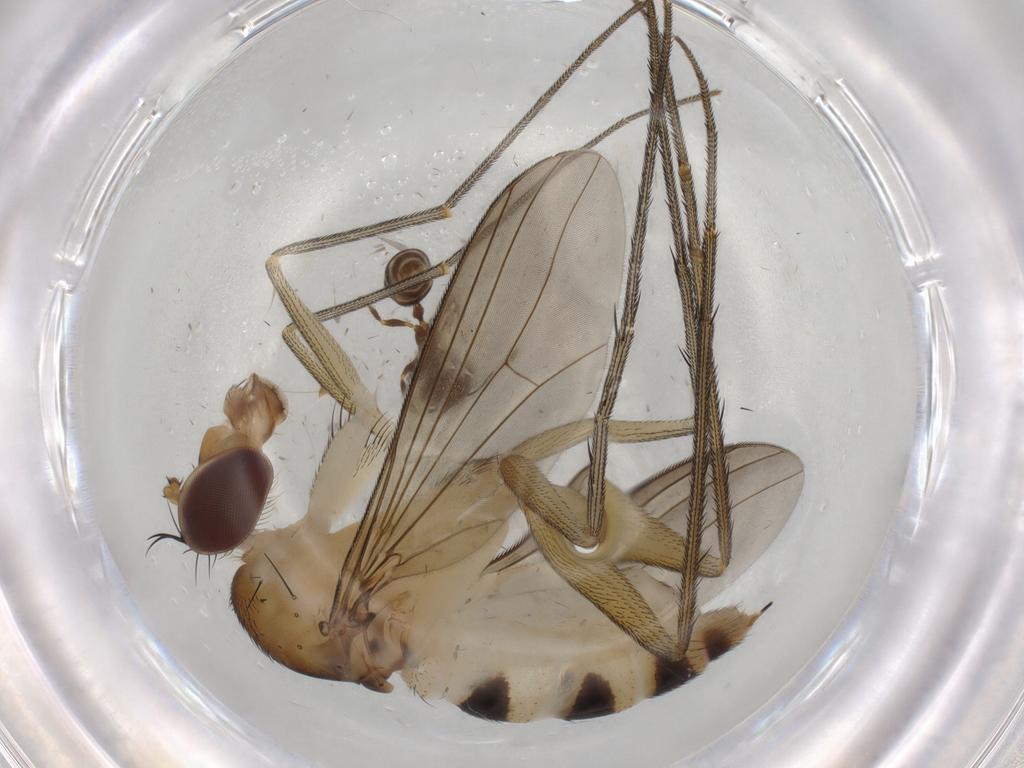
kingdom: Animalia
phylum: Arthropoda
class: Insecta
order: Diptera
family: Dolichopodidae
